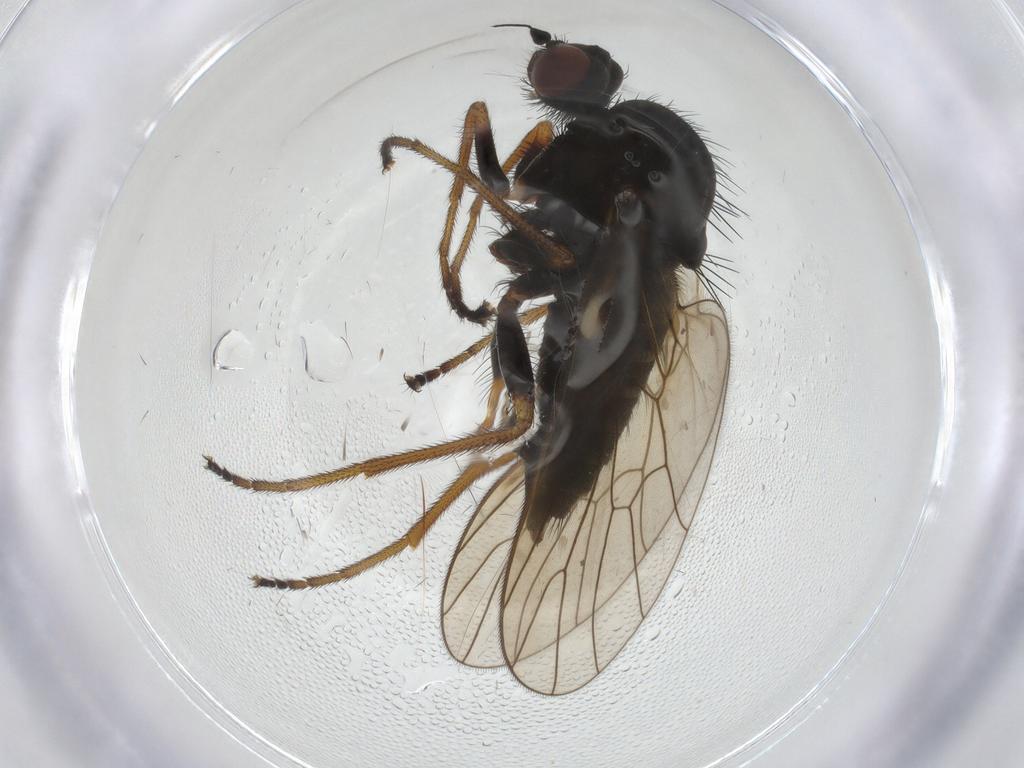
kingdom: Animalia
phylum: Arthropoda
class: Insecta
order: Diptera
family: Brachystomatidae
